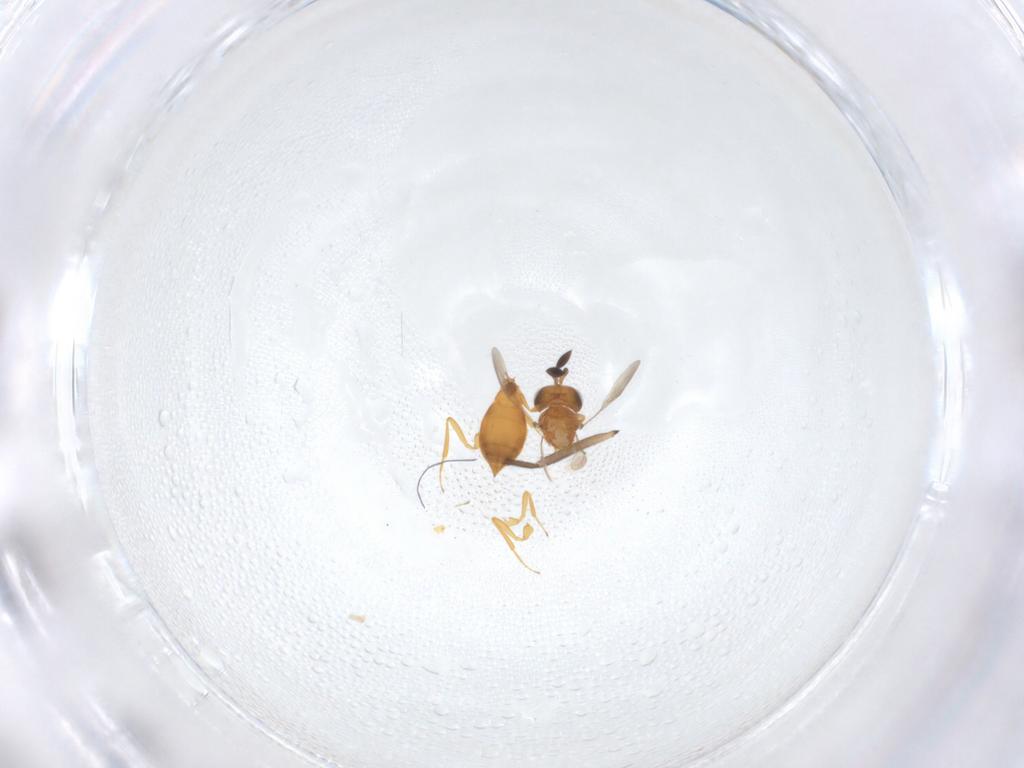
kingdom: Animalia
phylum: Arthropoda
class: Insecta
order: Hymenoptera
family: Scelionidae
